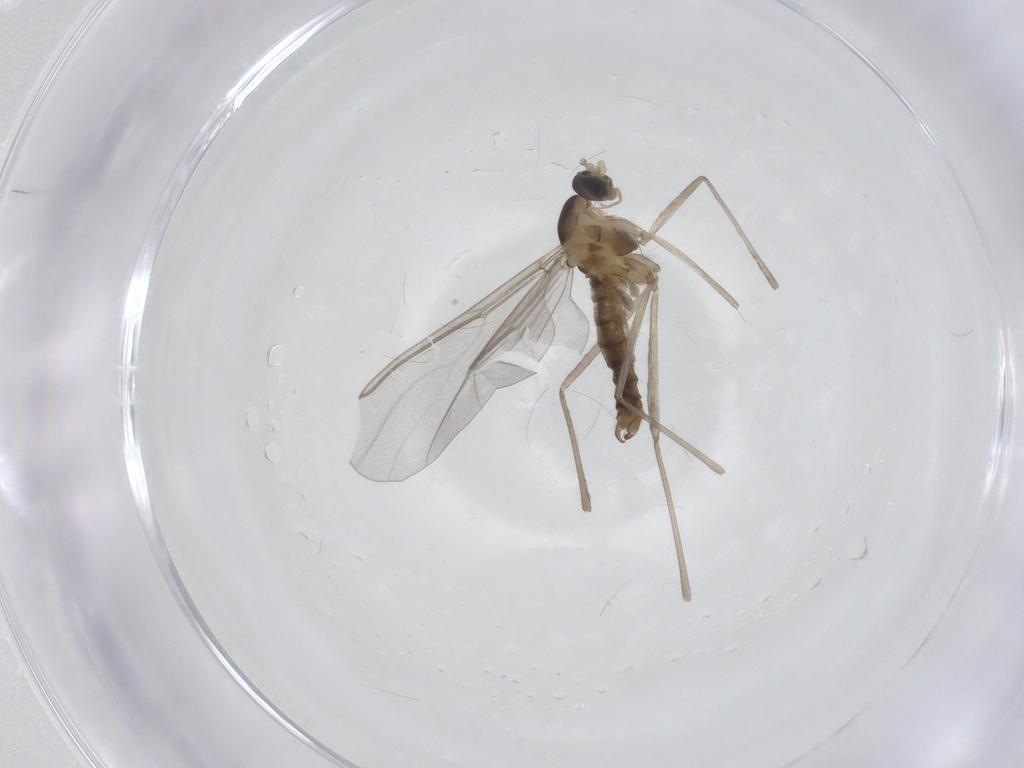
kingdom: Animalia
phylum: Arthropoda
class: Insecta
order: Diptera
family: Cecidomyiidae
